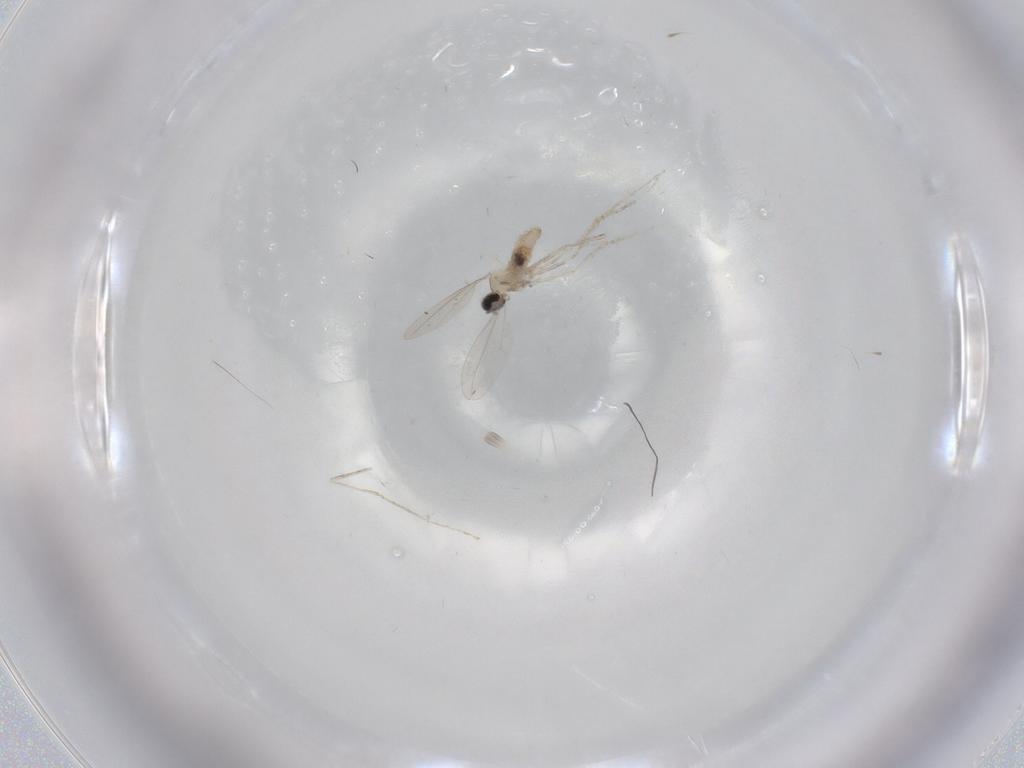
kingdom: Animalia
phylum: Arthropoda
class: Insecta
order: Diptera
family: Cecidomyiidae
